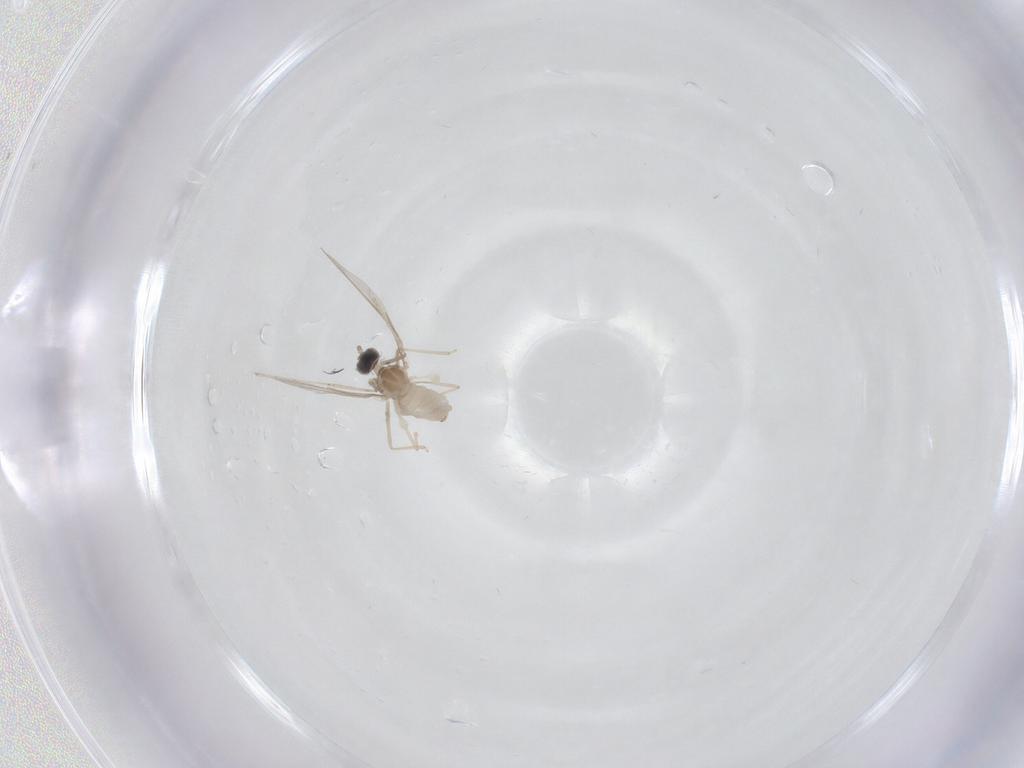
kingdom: Animalia
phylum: Arthropoda
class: Insecta
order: Diptera
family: Cecidomyiidae
